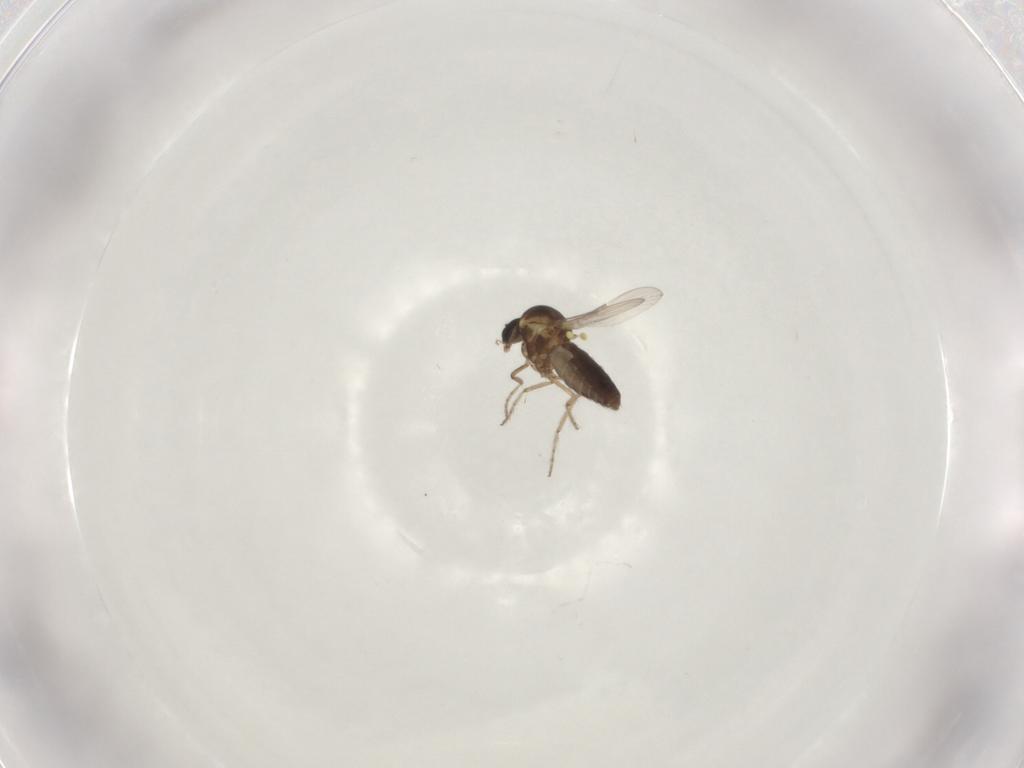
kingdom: Animalia
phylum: Arthropoda
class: Insecta
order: Diptera
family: Ceratopogonidae
